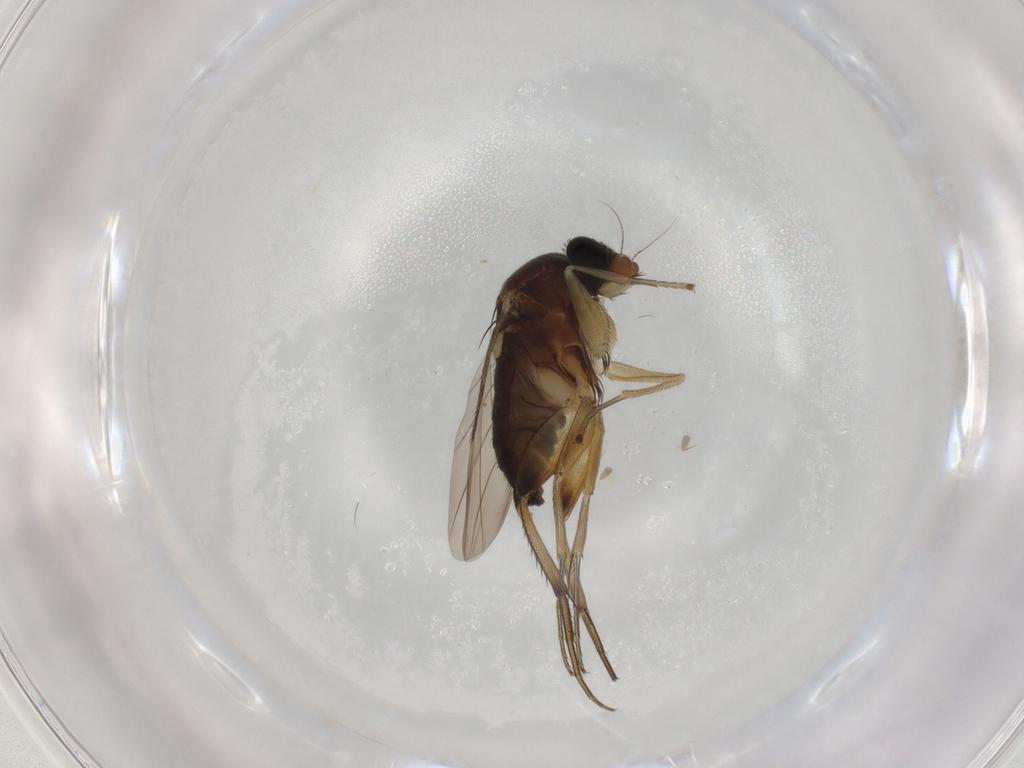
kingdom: Animalia
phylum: Arthropoda
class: Insecta
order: Diptera
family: Phoridae
